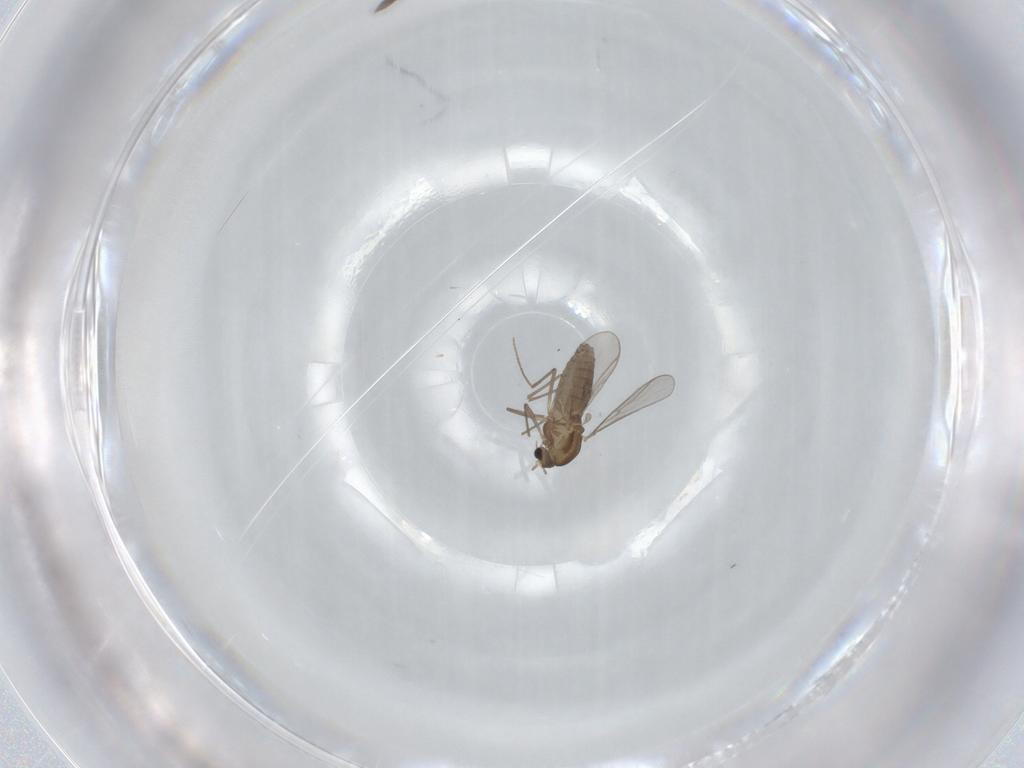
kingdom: Animalia
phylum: Arthropoda
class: Insecta
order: Diptera
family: Chironomidae
